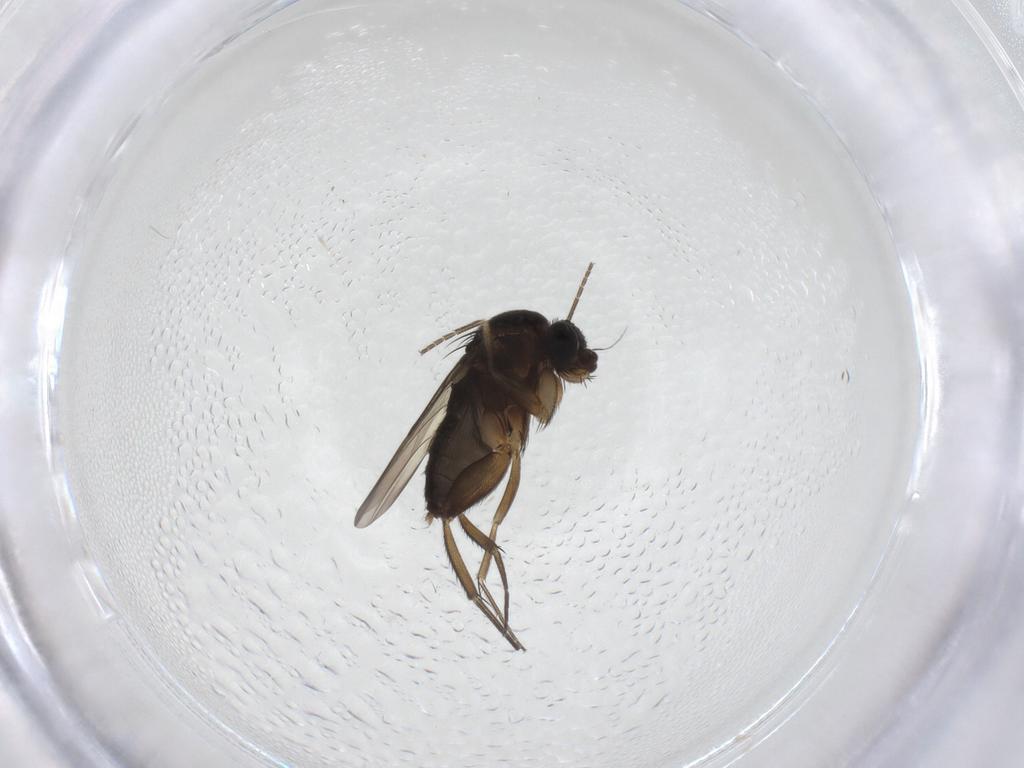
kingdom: Animalia
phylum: Arthropoda
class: Insecta
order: Diptera
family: Phoridae
